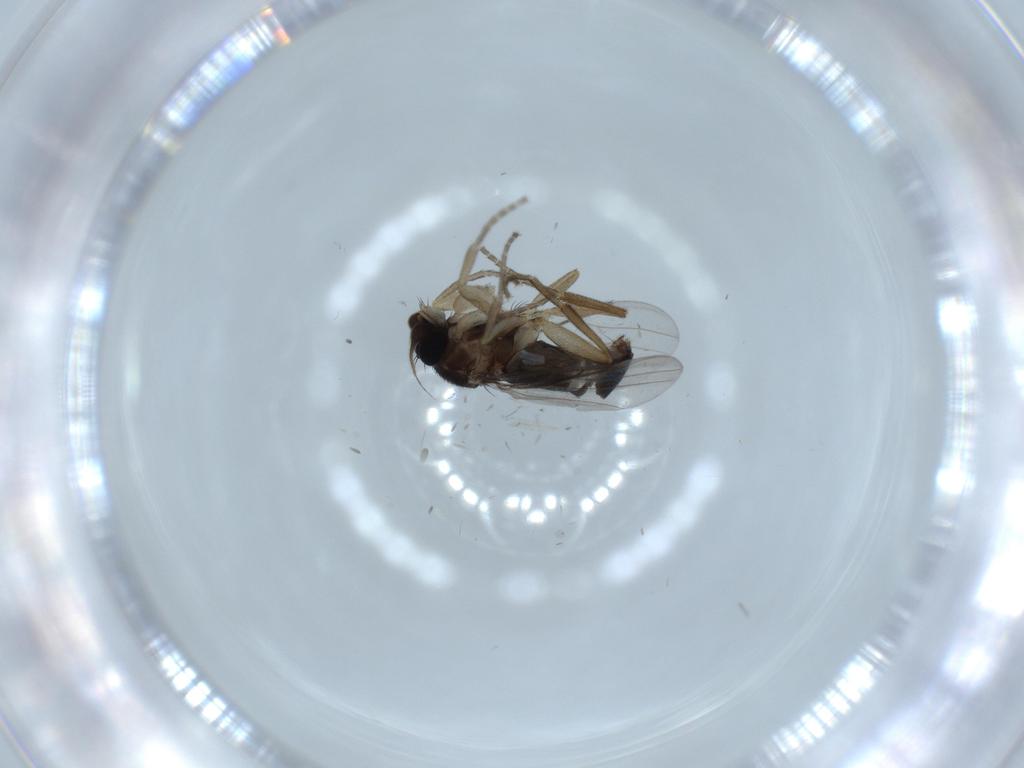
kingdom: Animalia
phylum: Arthropoda
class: Insecta
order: Diptera
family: Phoridae
